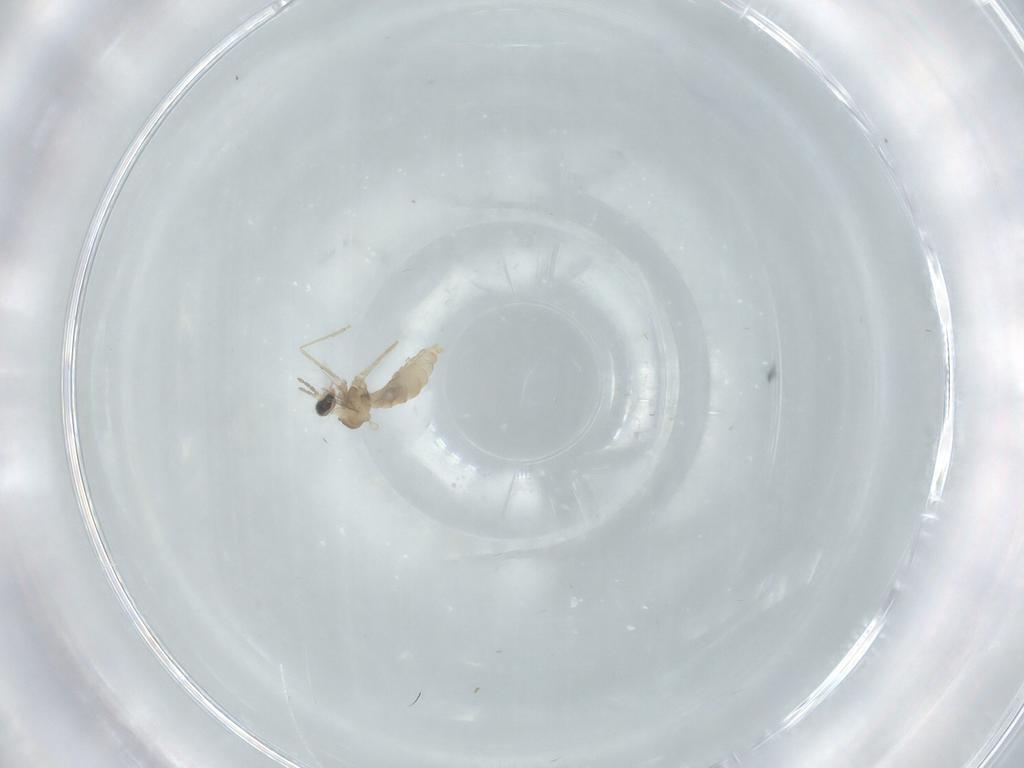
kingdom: Animalia
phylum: Arthropoda
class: Insecta
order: Diptera
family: Cecidomyiidae
